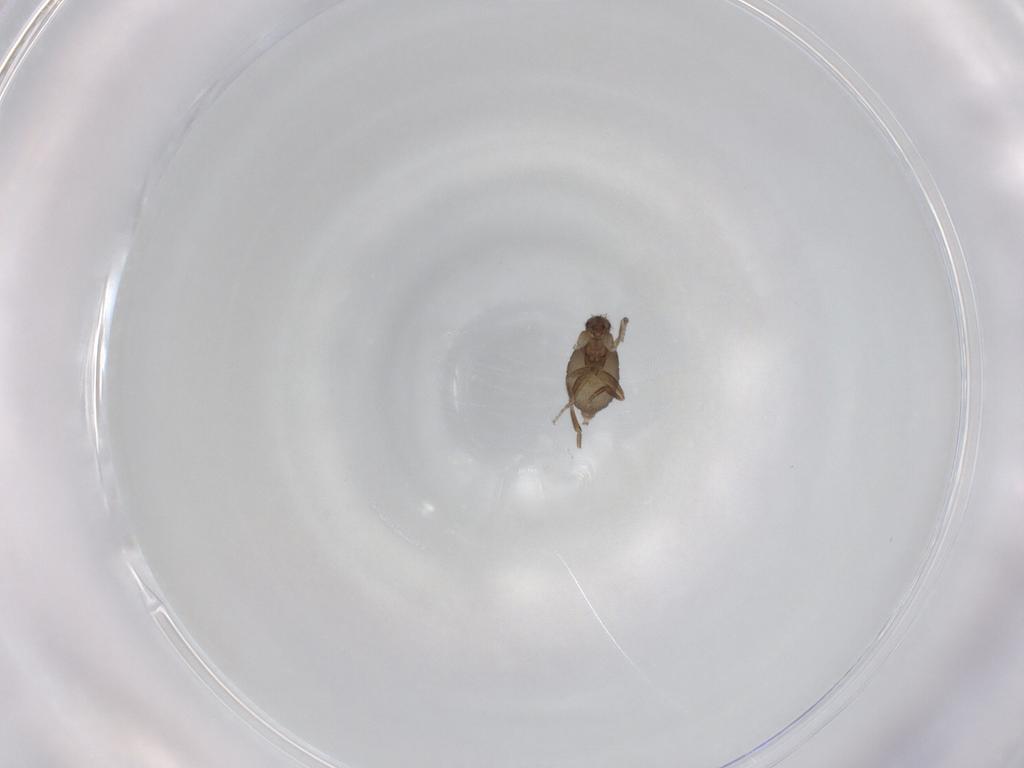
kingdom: Animalia
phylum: Arthropoda
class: Insecta
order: Diptera
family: Phoridae
